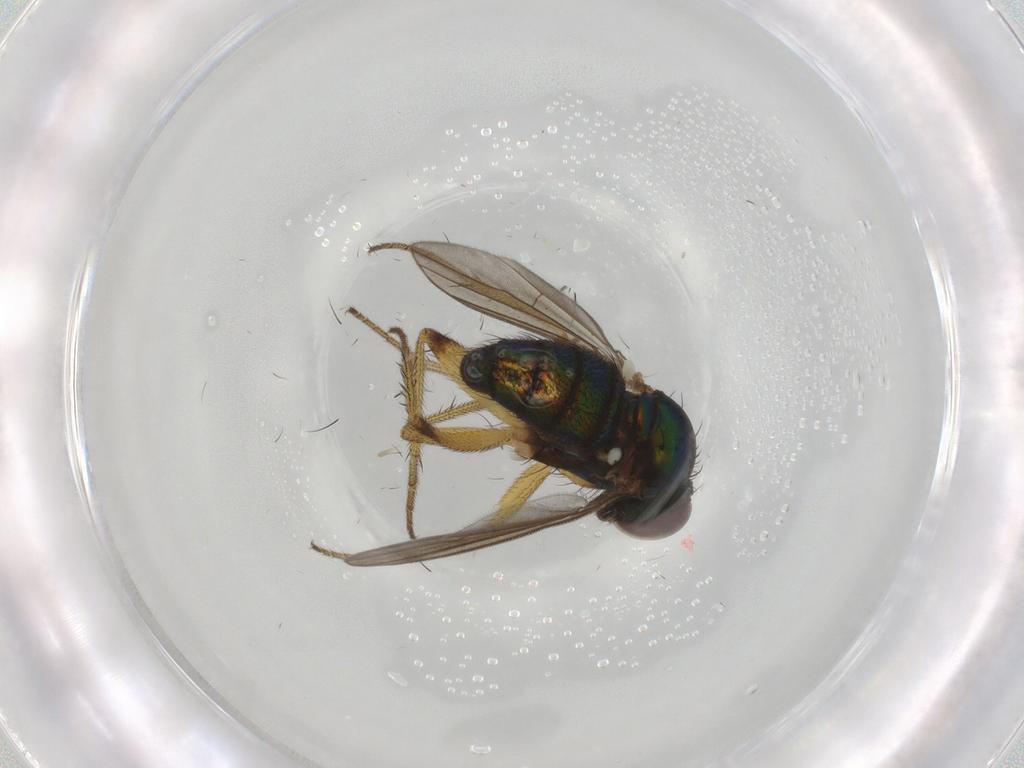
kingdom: Animalia
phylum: Arthropoda
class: Insecta
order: Diptera
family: Dolichopodidae
